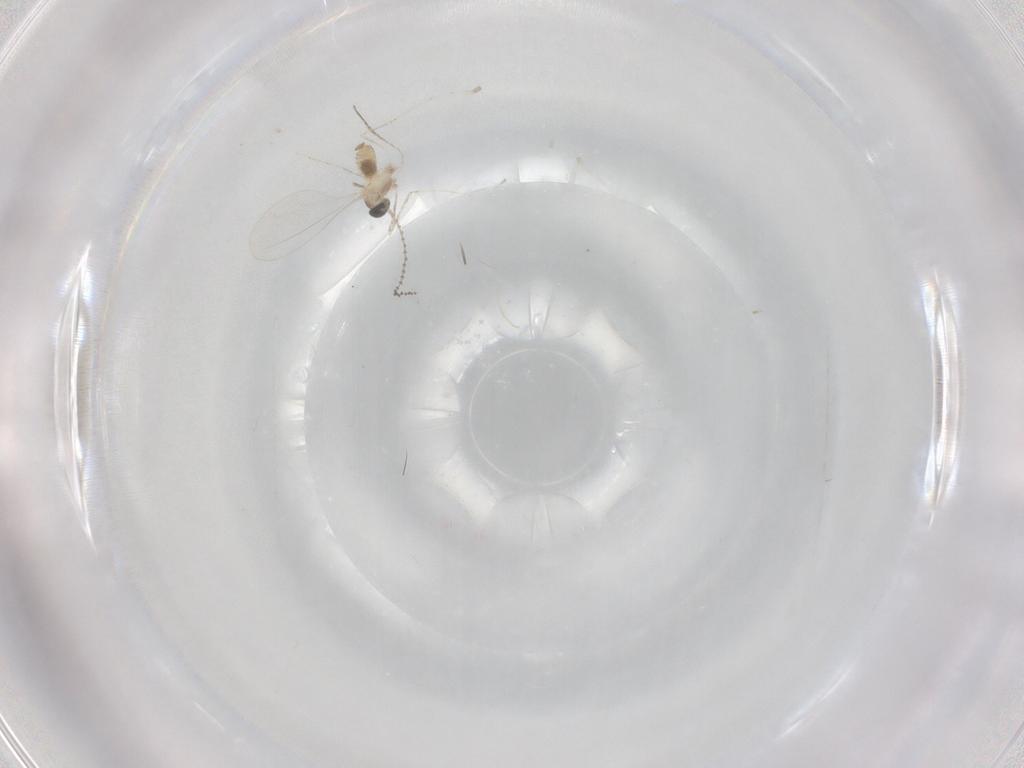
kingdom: Animalia
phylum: Arthropoda
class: Insecta
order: Diptera
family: Cecidomyiidae
